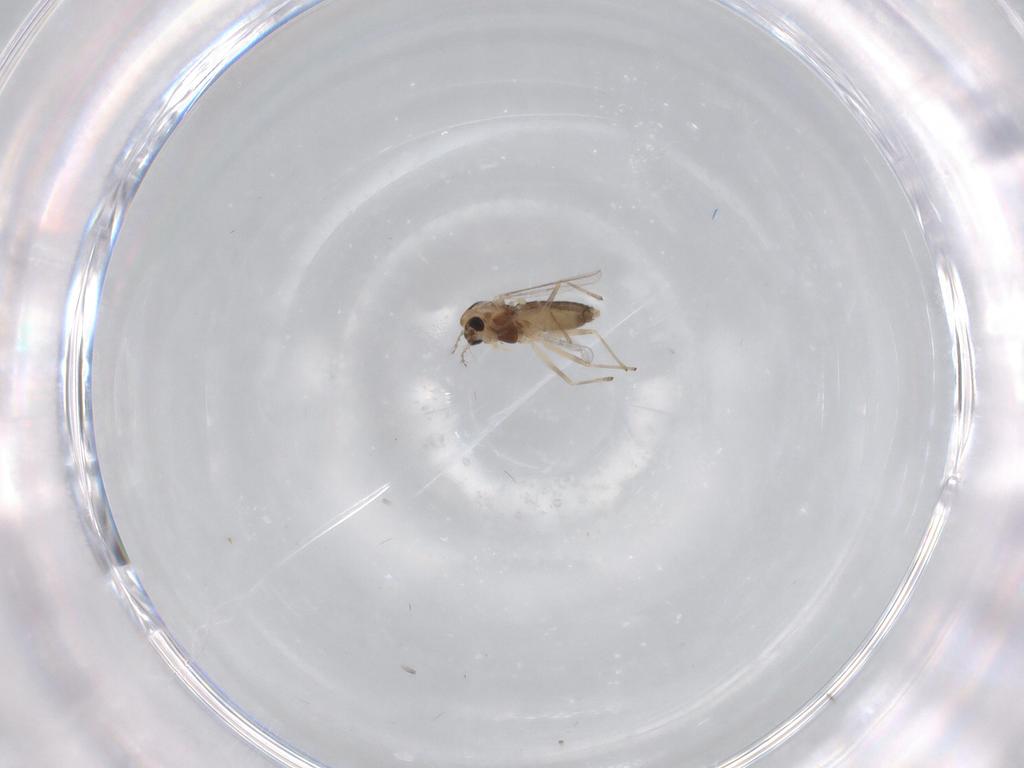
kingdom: Animalia
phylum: Arthropoda
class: Insecta
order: Diptera
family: Chironomidae
